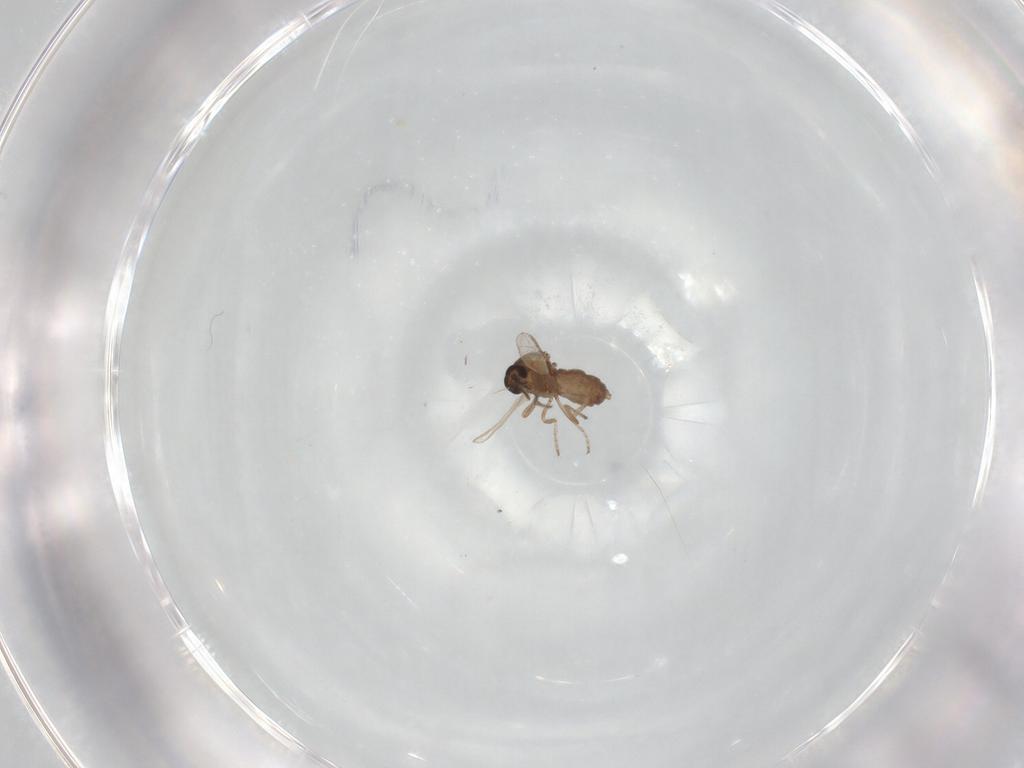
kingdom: Animalia
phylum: Arthropoda
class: Insecta
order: Diptera
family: Ceratopogonidae
